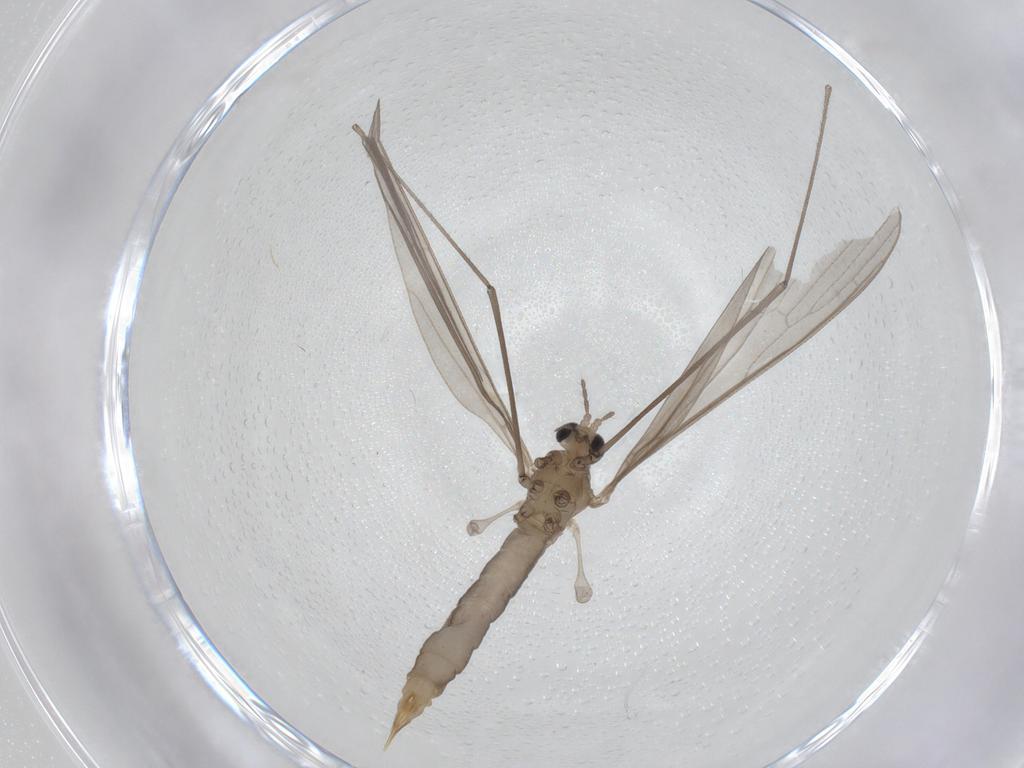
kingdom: Animalia
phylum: Arthropoda
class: Insecta
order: Diptera
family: Limoniidae
